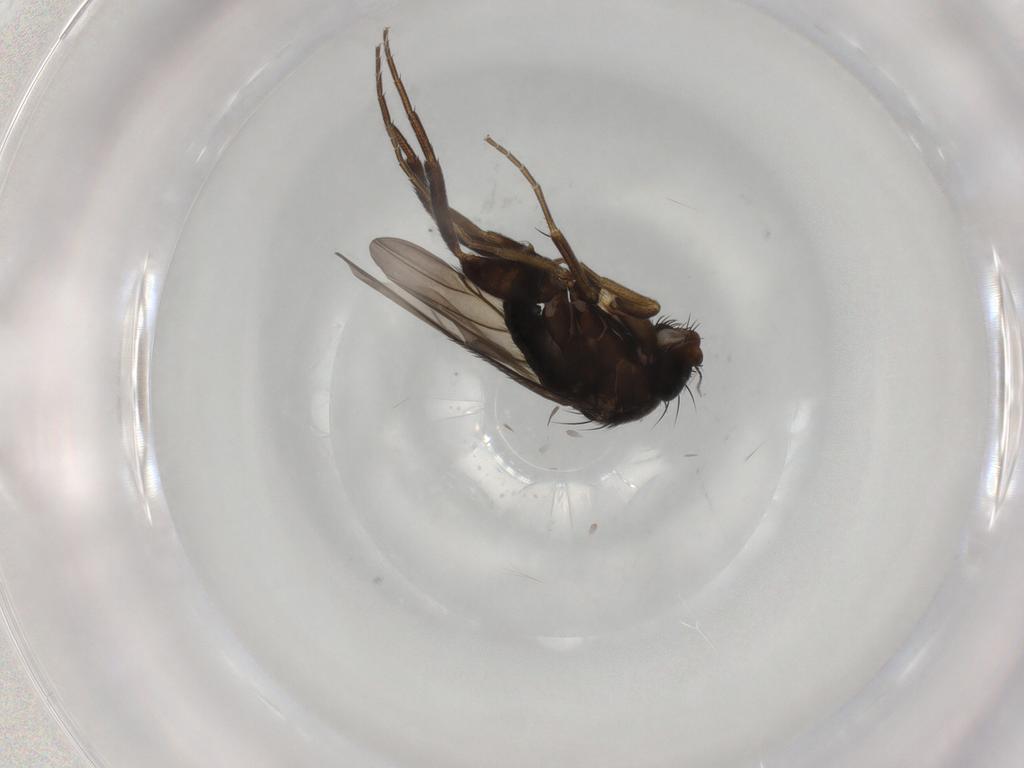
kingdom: Animalia
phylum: Arthropoda
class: Insecta
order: Diptera
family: Phoridae
